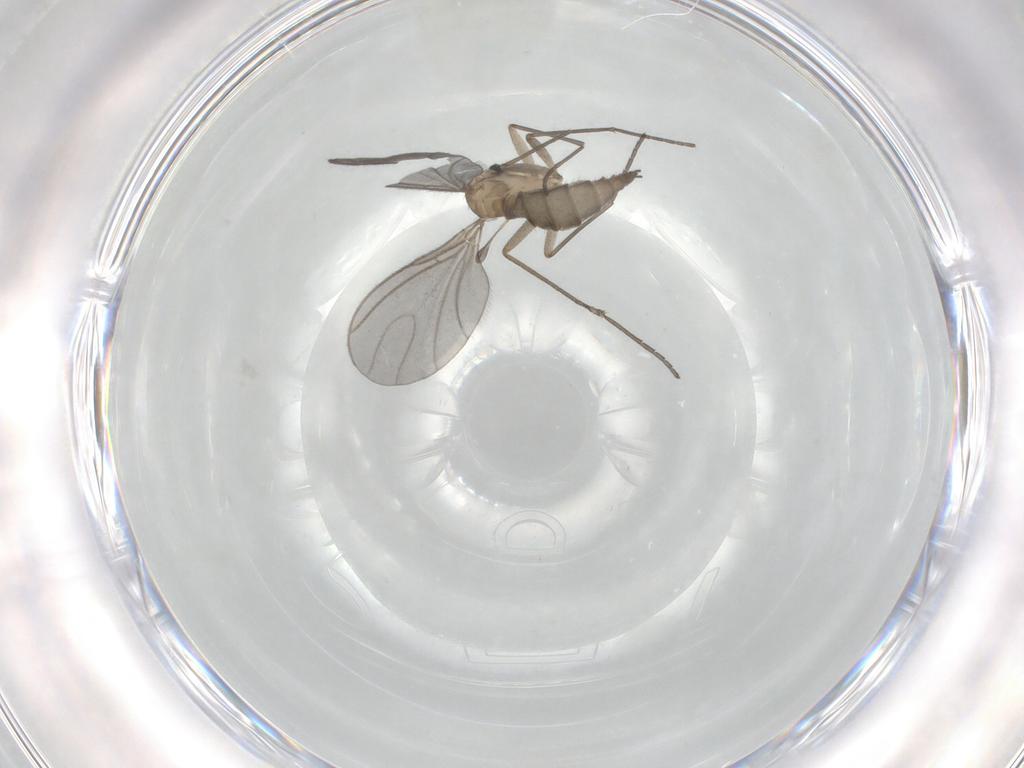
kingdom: Animalia
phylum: Arthropoda
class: Insecta
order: Diptera
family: Sciaridae
